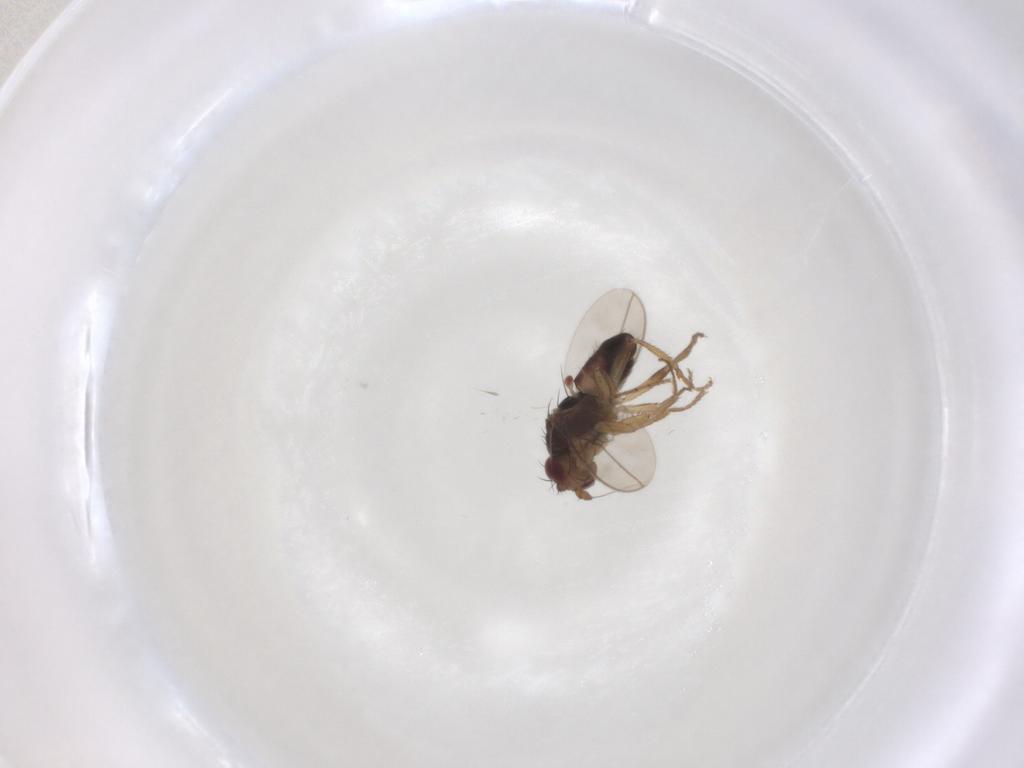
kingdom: Animalia
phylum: Arthropoda
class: Insecta
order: Diptera
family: Sphaeroceridae
